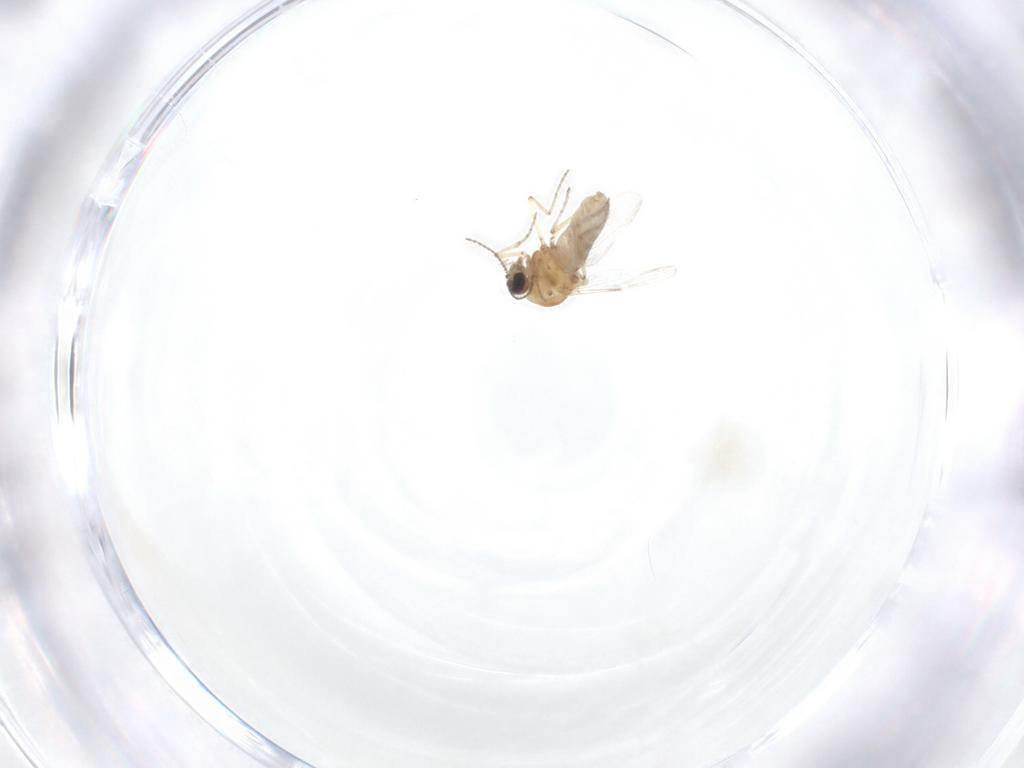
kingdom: Animalia
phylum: Arthropoda
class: Insecta
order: Diptera
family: Ceratopogonidae
